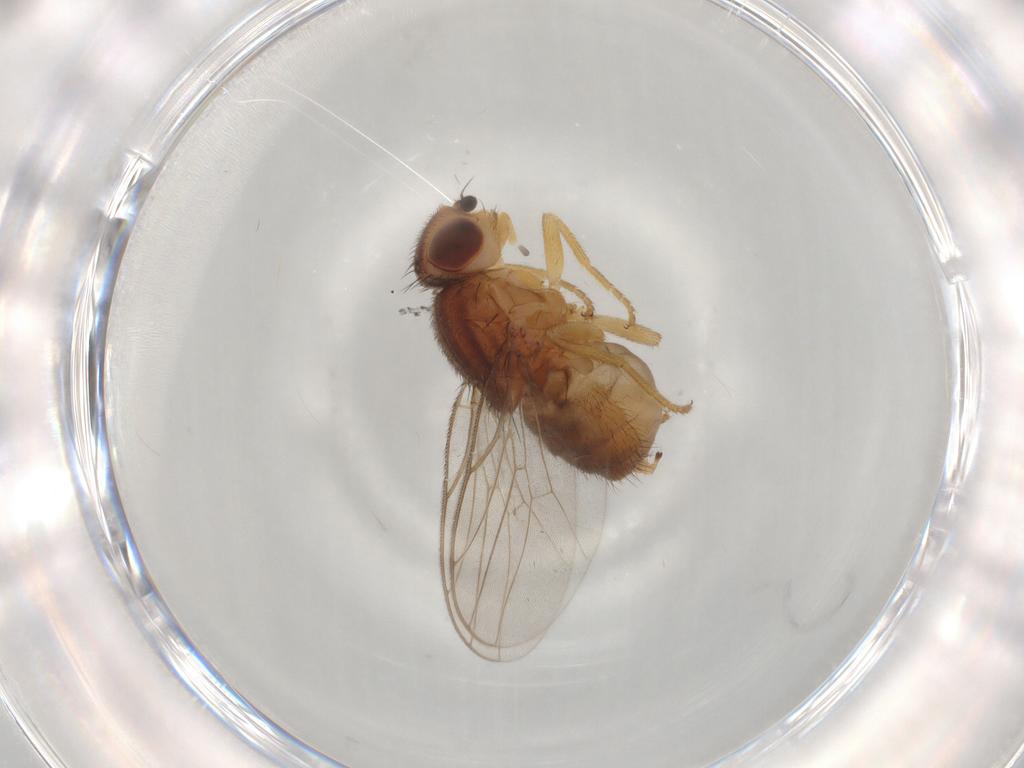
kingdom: Animalia
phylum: Arthropoda
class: Insecta
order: Diptera
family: Chloropidae
